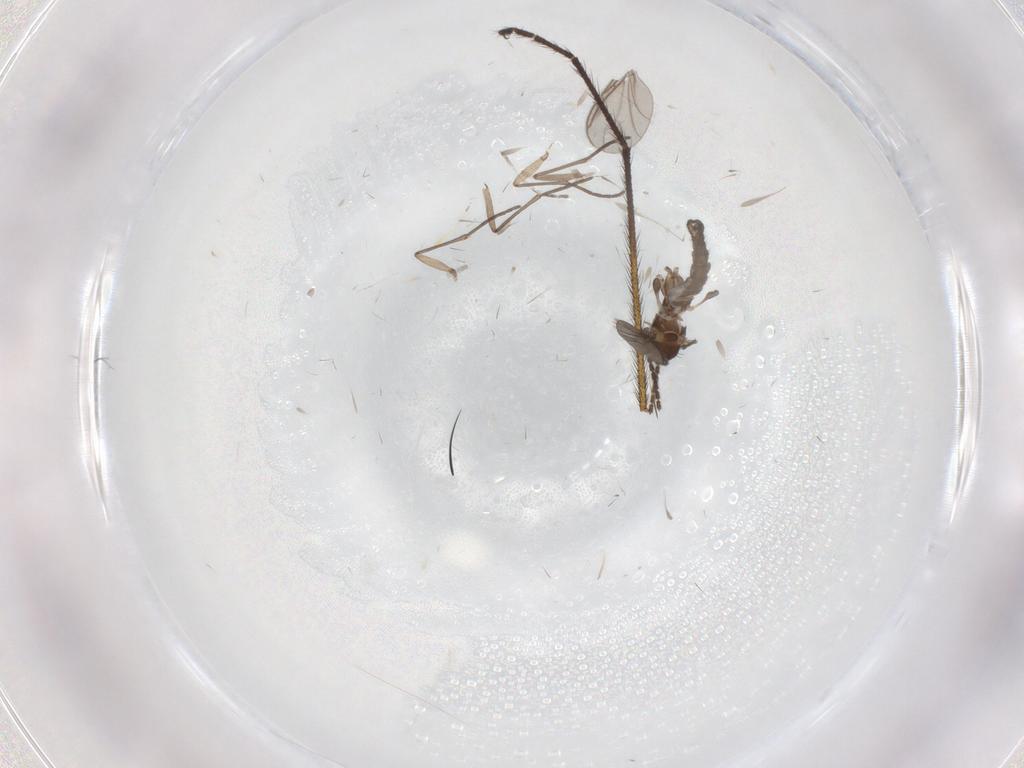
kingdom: Animalia
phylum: Arthropoda
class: Insecta
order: Diptera
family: Sciaridae
